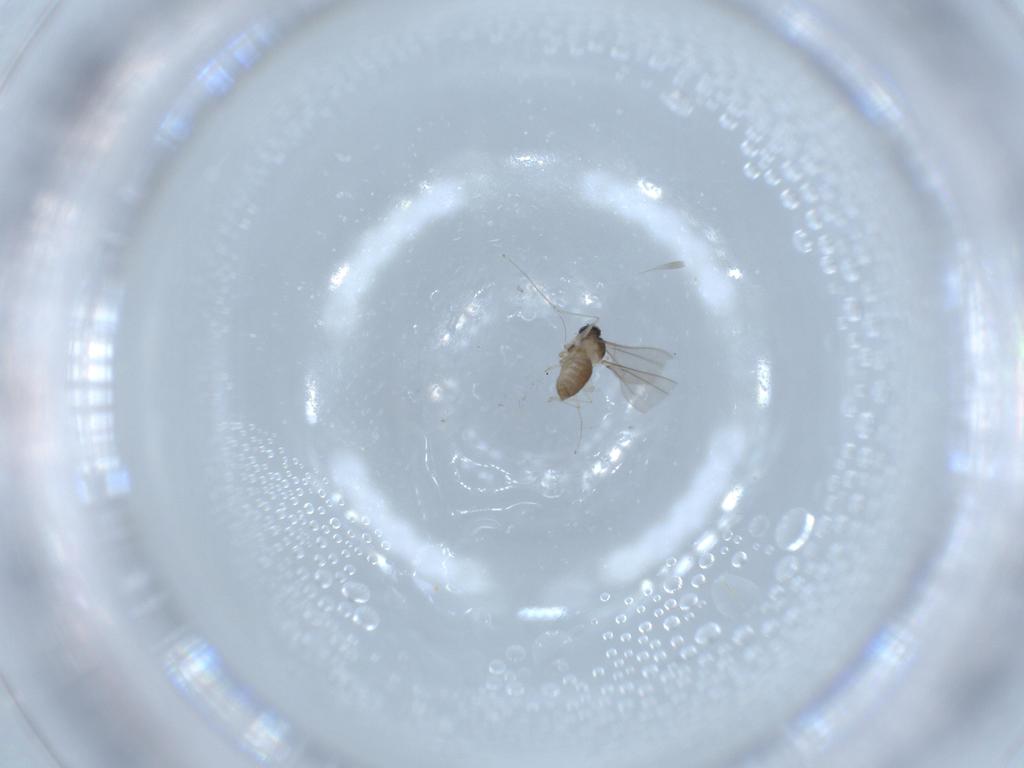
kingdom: Animalia
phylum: Arthropoda
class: Insecta
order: Diptera
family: Cecidomyiidae
